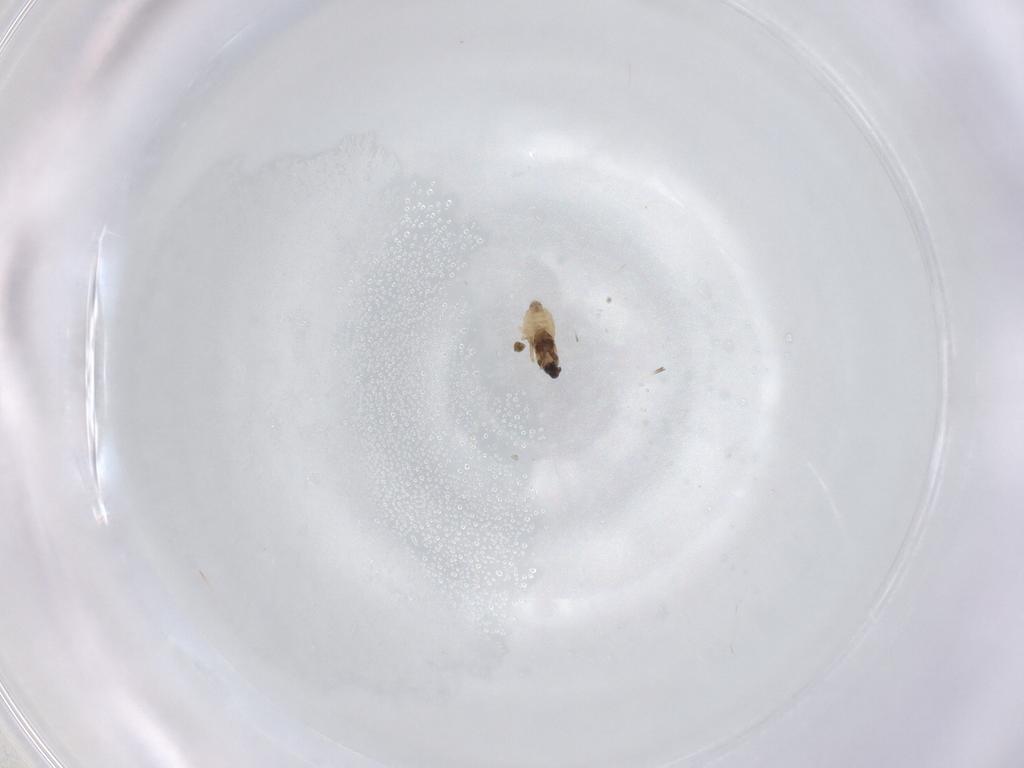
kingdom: Animalia
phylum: Arthropoda
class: Insecta
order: Diptera
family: Cecidomyiidae
